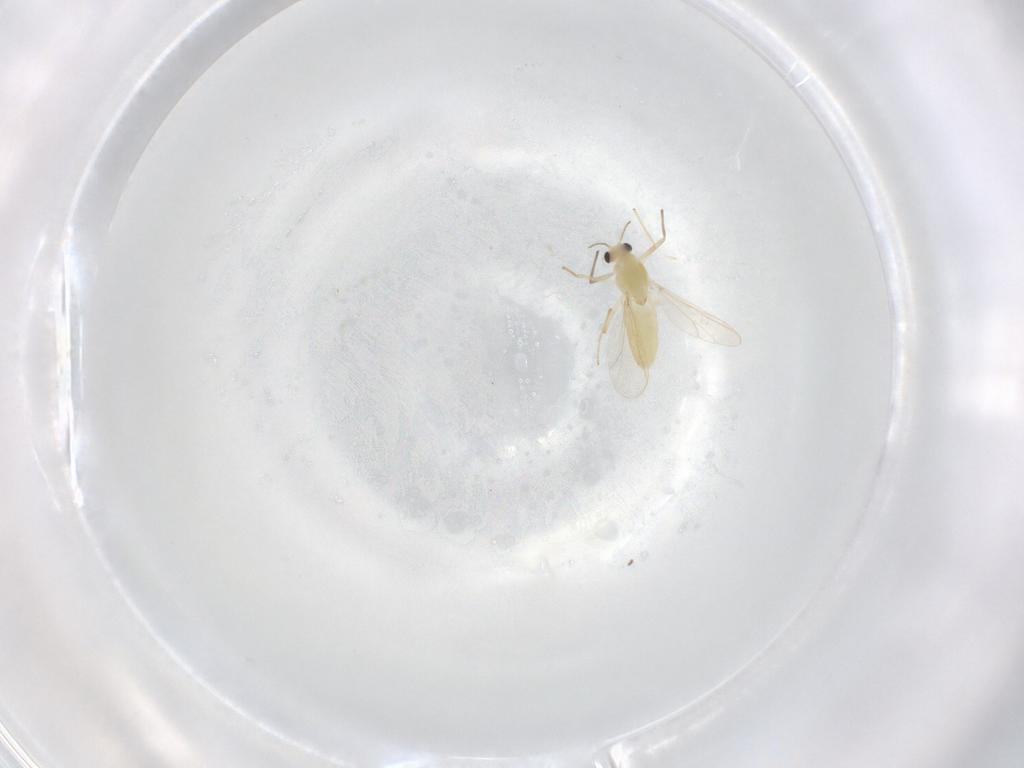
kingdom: Animalia
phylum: Arthropoda
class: Insecta
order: Diptera
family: Chironomidae
